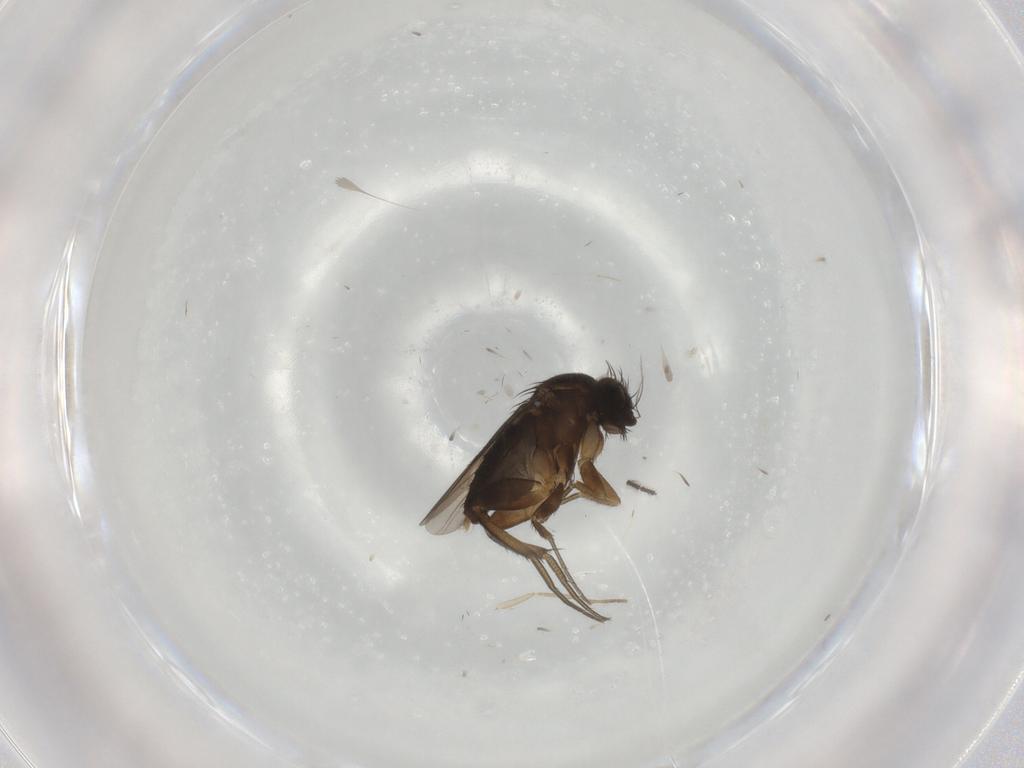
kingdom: Animalia
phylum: Arthropoda
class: Insecta
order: Diptera
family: Phoridae
